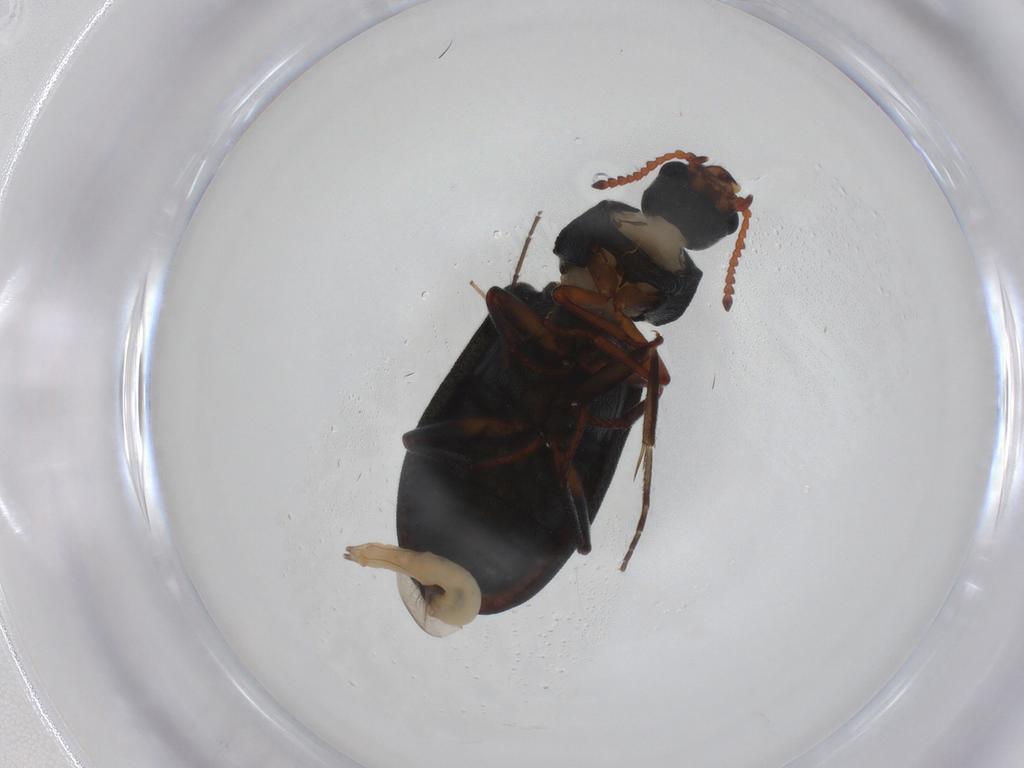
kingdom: Animalia
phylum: Arthropoda
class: Insecta
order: Coleoptera
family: Melyridae
